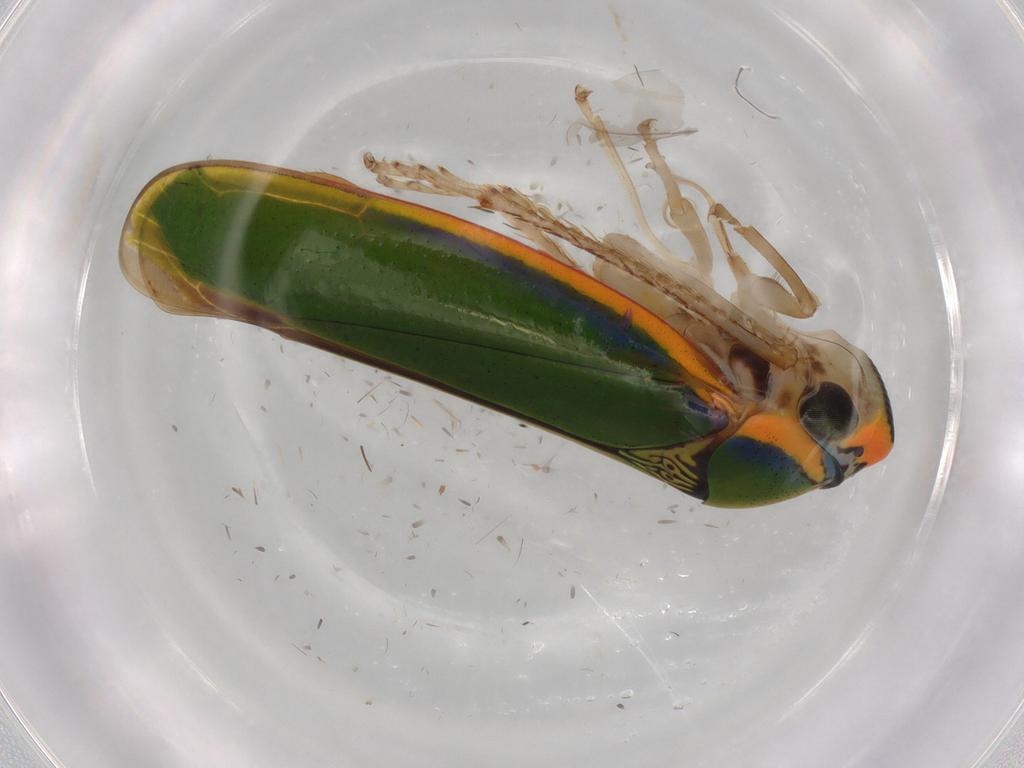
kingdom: Animalia
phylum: Arthropoda
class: Insecta
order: Hemiptera
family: Cicadellidae
